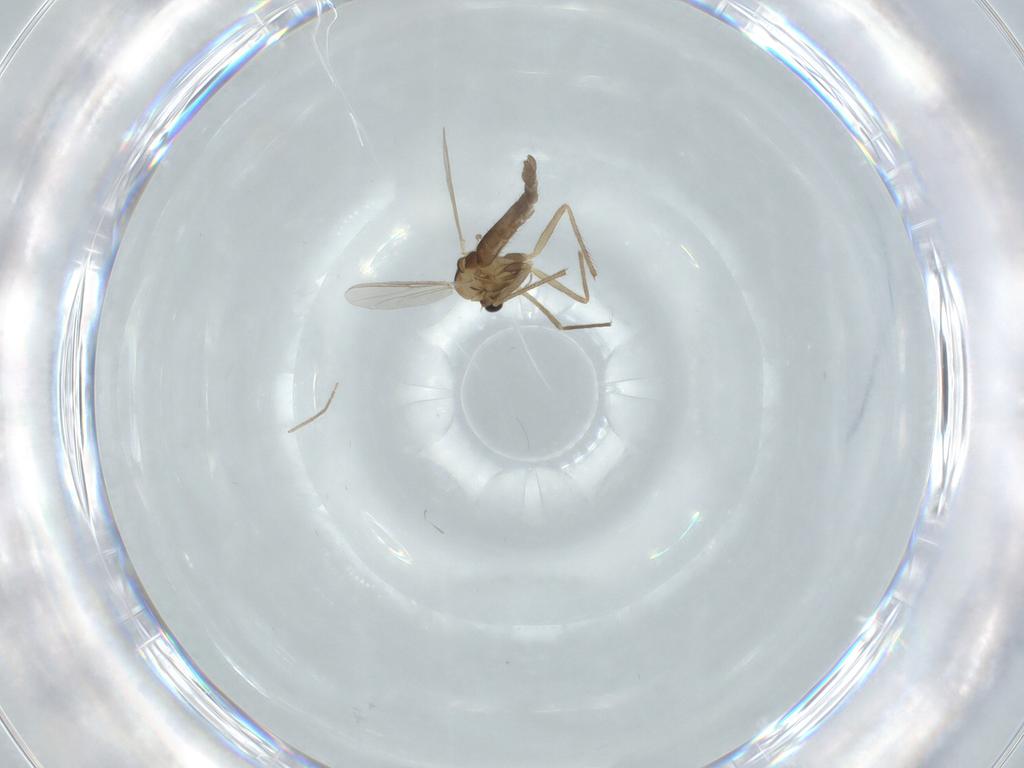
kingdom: Animalia
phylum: Arthropoda
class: Insecta
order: Diptera
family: Chironomidae
